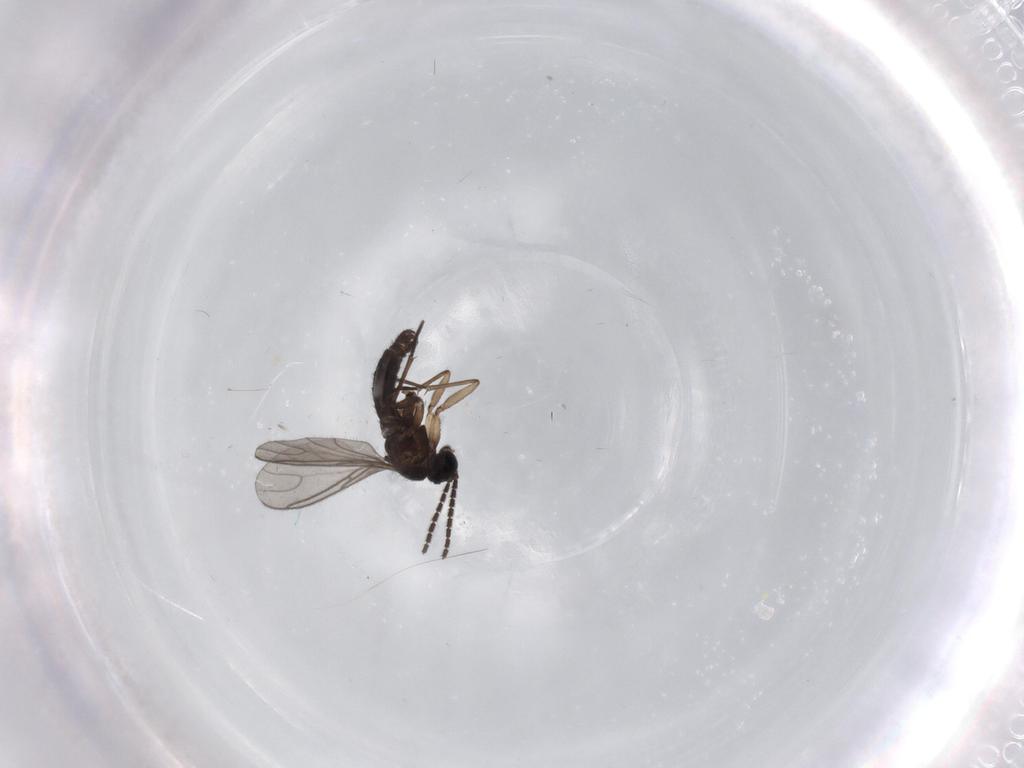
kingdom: Animalia
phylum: Arthropoda
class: Insecta
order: Diptera
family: Sciaridae
